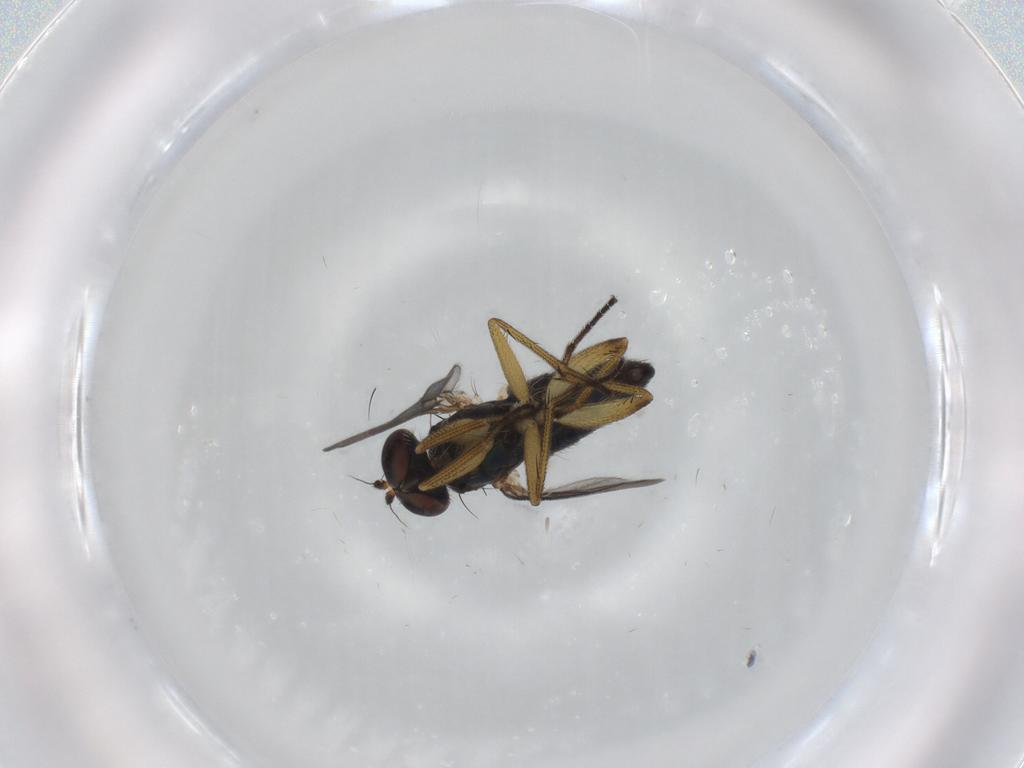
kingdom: Animalia
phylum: Arthropoda
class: Insecta
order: Diptera
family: Dolichopodidae
